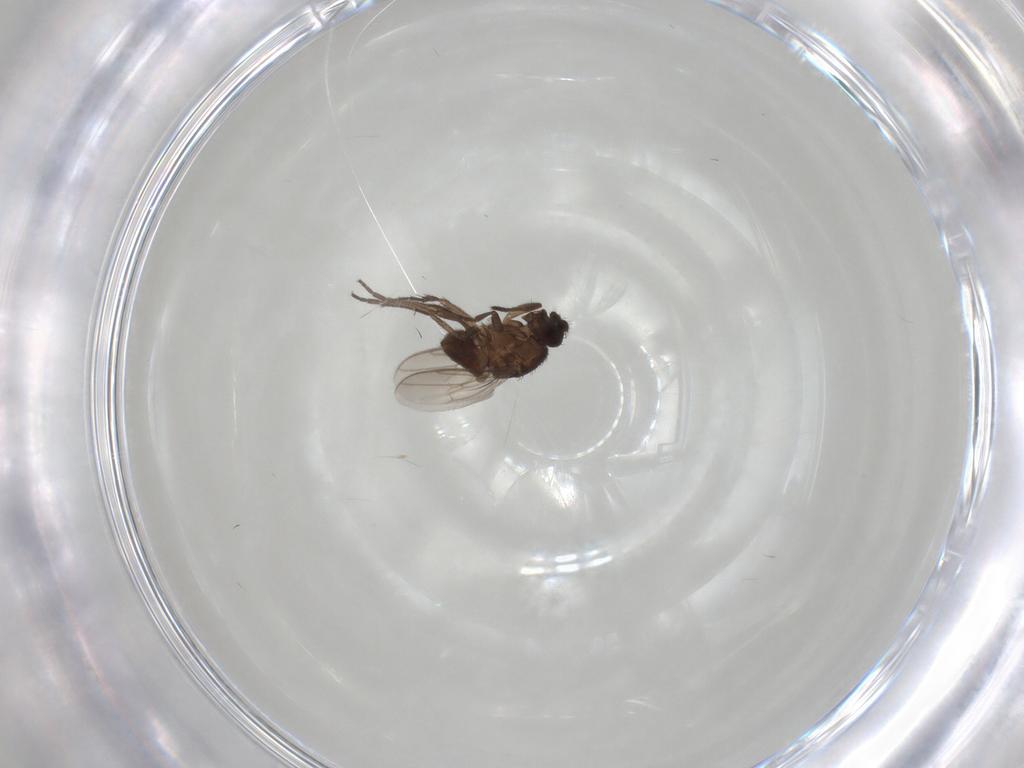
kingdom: Animalia
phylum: Arthropoda
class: Insecta
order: Diptera
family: Sphaeroceridae
